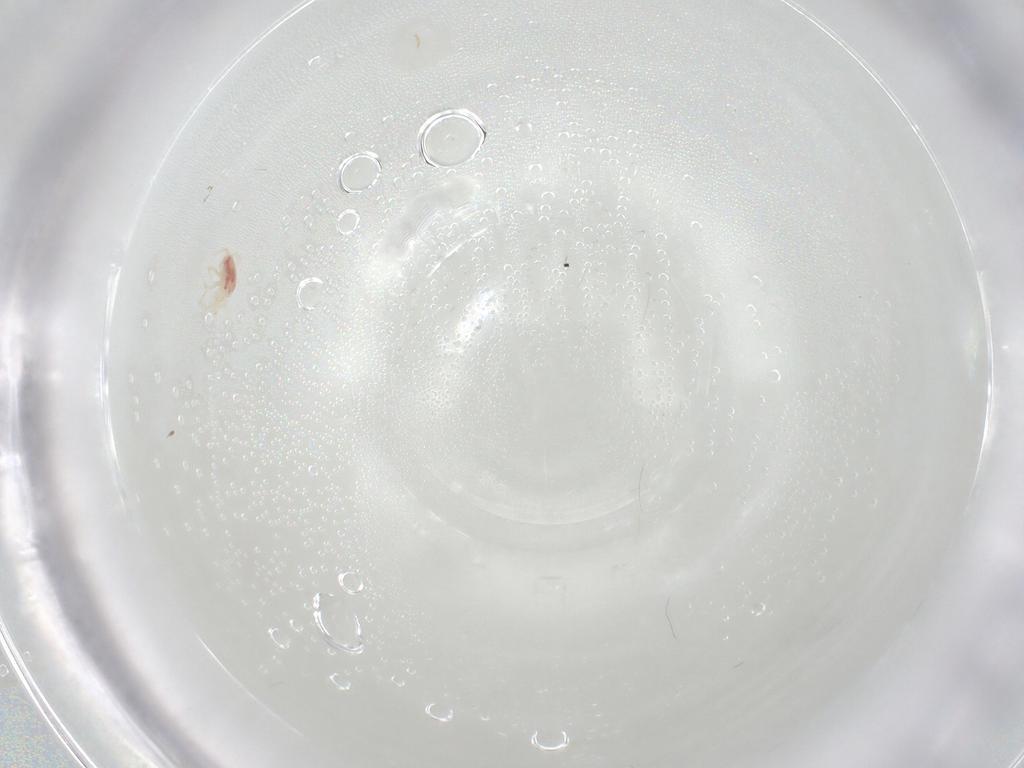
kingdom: Animalia
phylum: Arthropoda
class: Arachnida
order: Mesostigmata
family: Phytoseiidae
